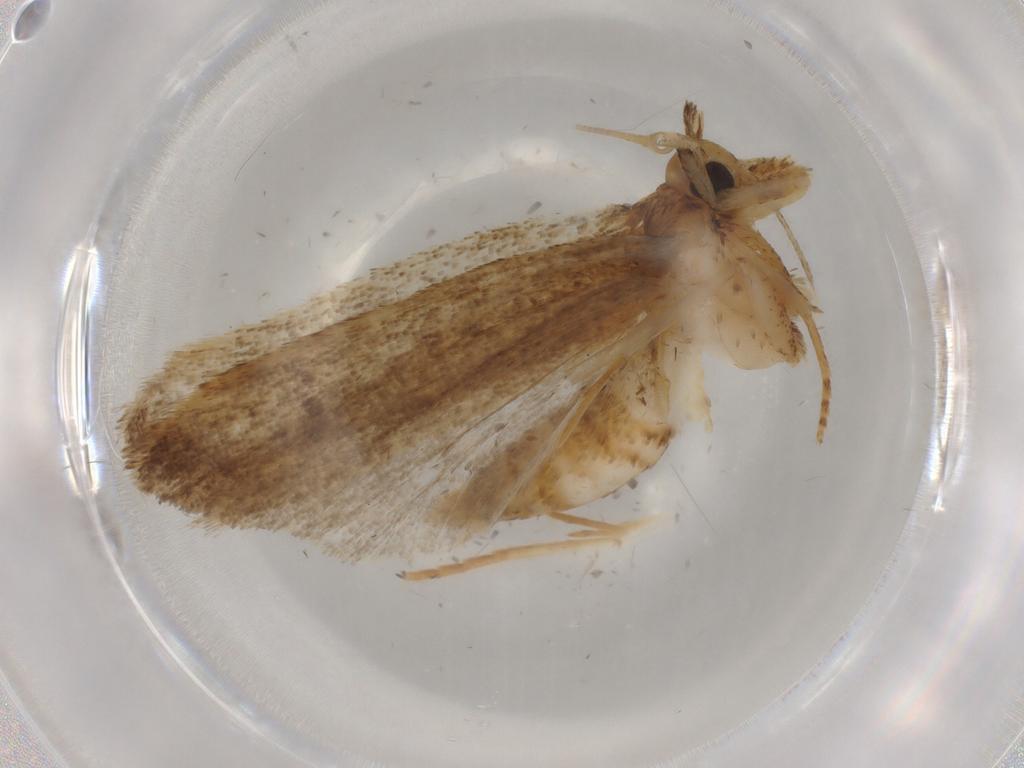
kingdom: Animalia
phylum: Arthropoda
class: Insecta
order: Lepidoptera
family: Autostichidae
